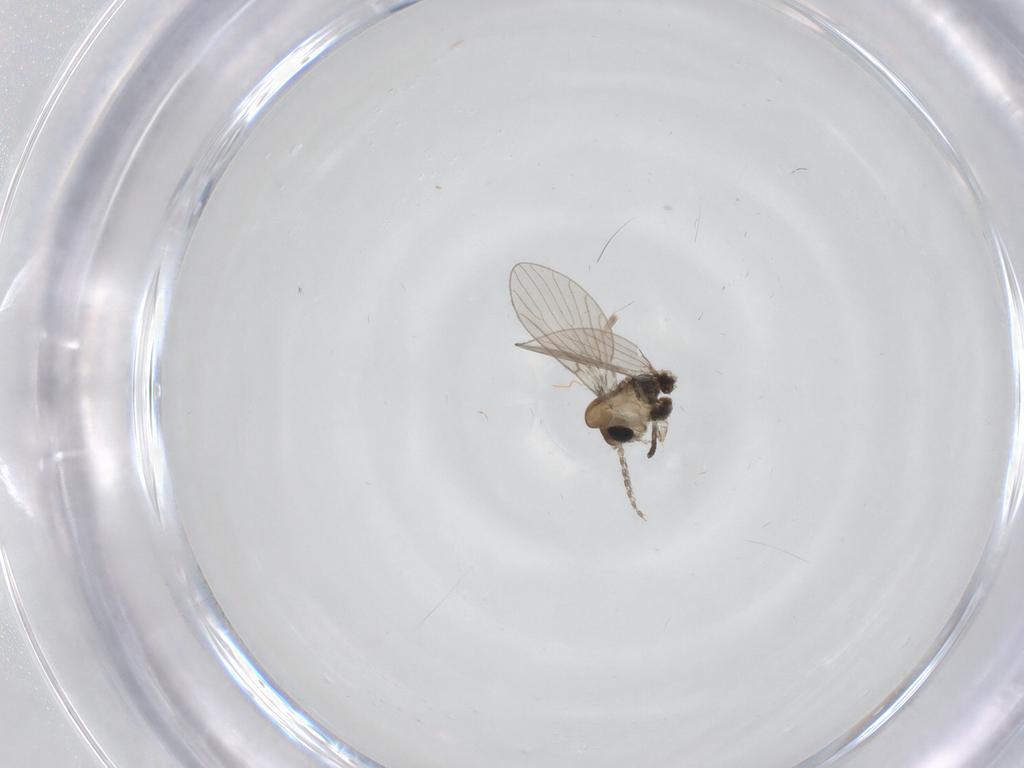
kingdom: Animalia
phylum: Arthropoda
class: Insecta
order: Diptera
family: Psychodidae
